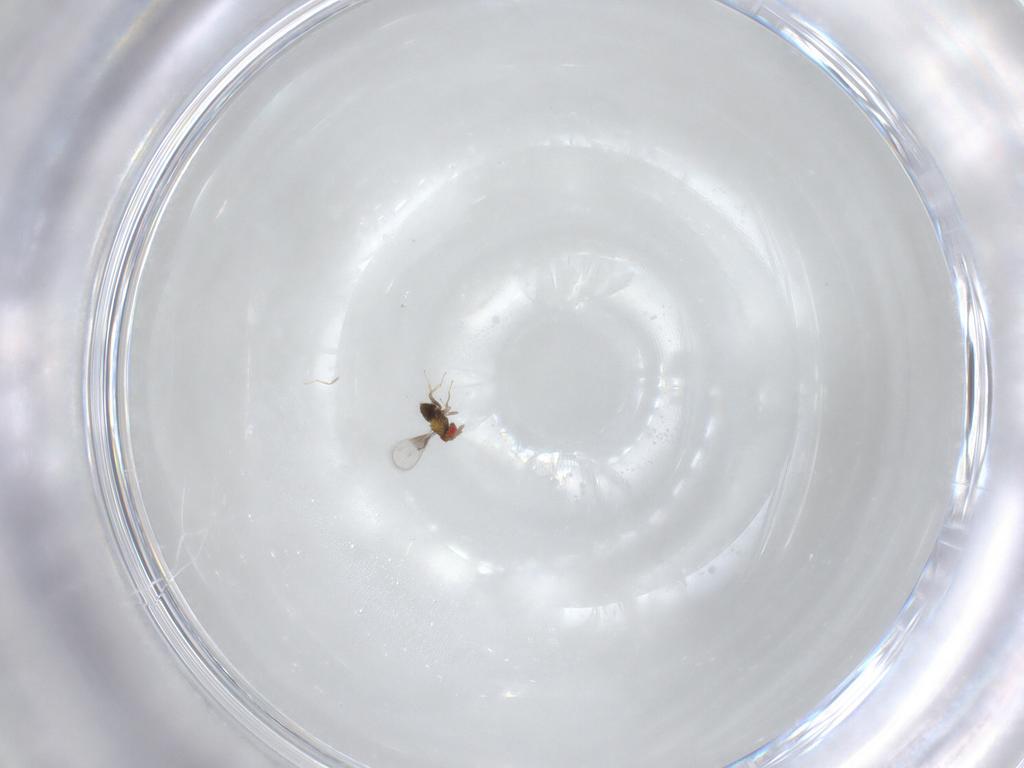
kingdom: Animalia
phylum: Arthropoda
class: Insecta
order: Hymenoptera
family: Trichogrammatidae
